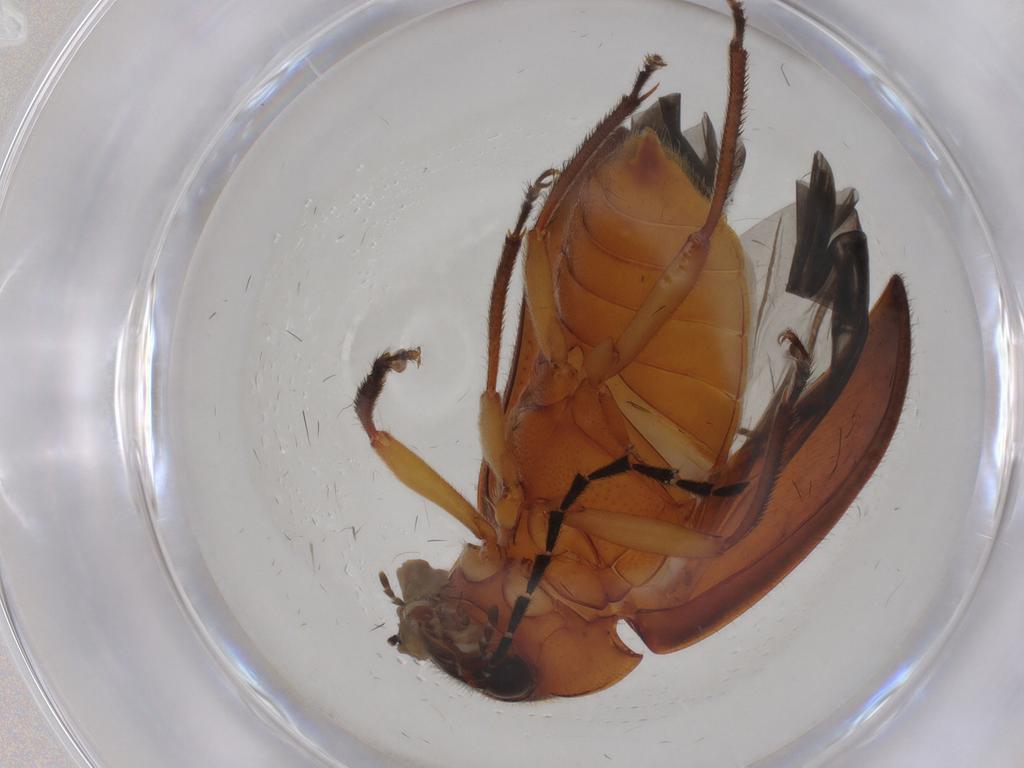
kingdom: Animalia
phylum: Arthropoda
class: Insecta
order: Coleoptera
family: Ptilodactylidae
